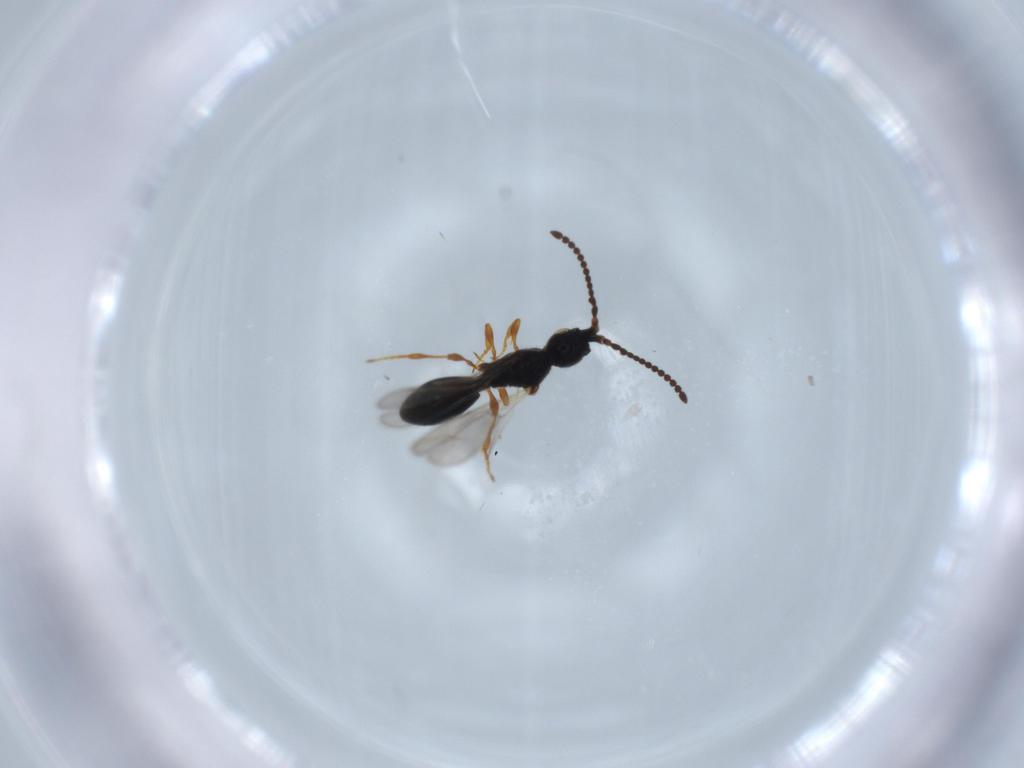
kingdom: Animalia
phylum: Arthropoda
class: Insecta
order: Hymenoptera
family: Diapriidae
